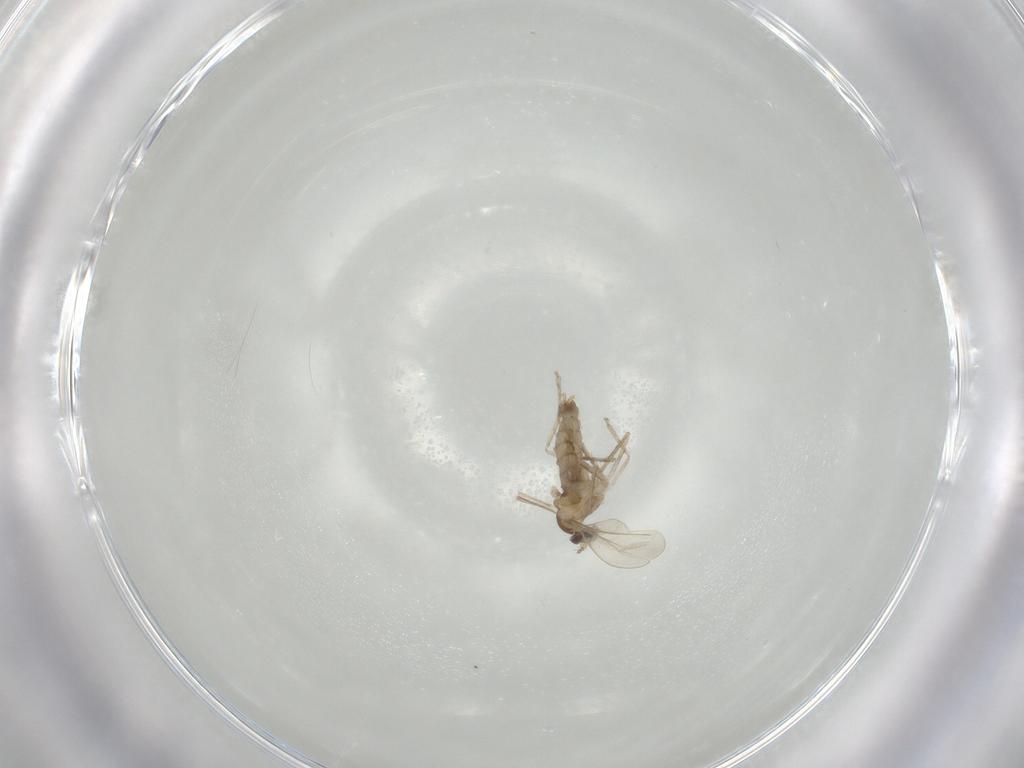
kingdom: Animalia
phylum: Arthropoda
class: Insecta
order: Diptera
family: Cecidomyiidae
